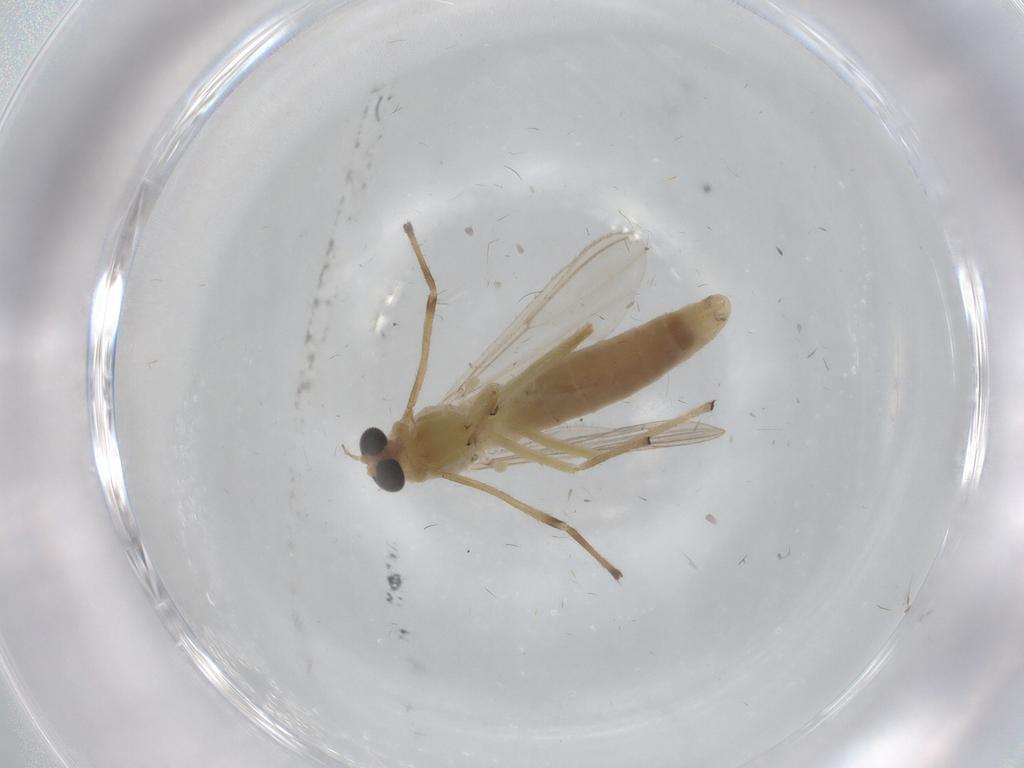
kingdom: Animalia
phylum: Arthropoda
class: Insecta
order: Diptera
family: Chironomidae
